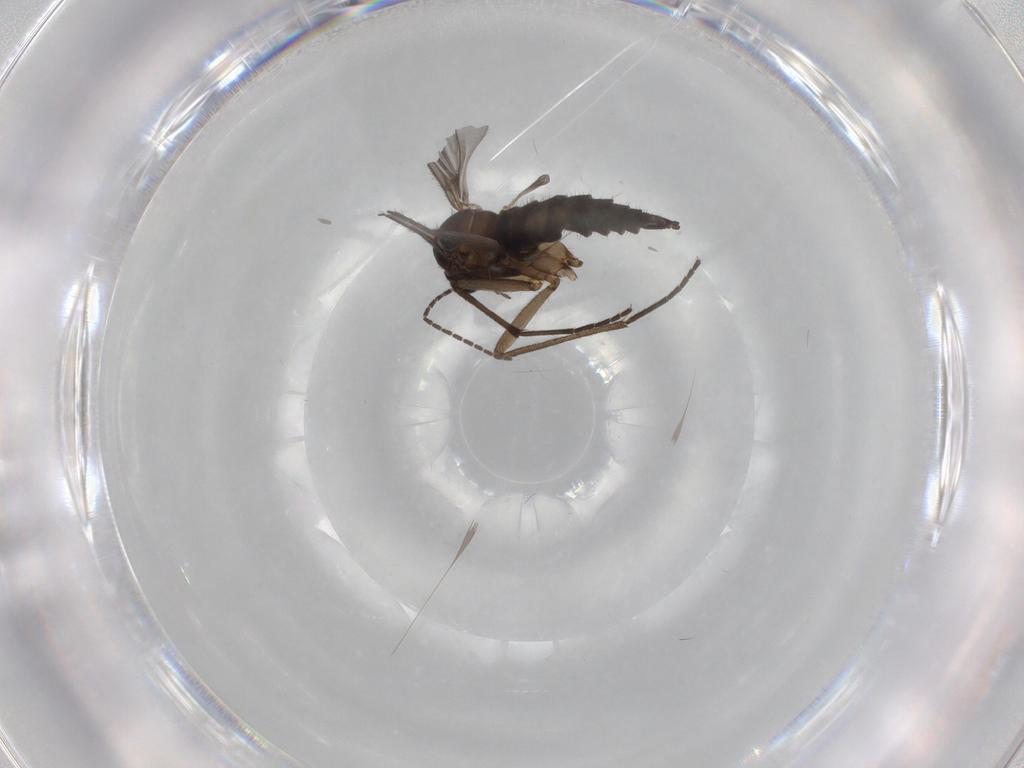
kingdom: Animalia
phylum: Arthropoda
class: Insecta
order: Diptera
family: Sciaridae
